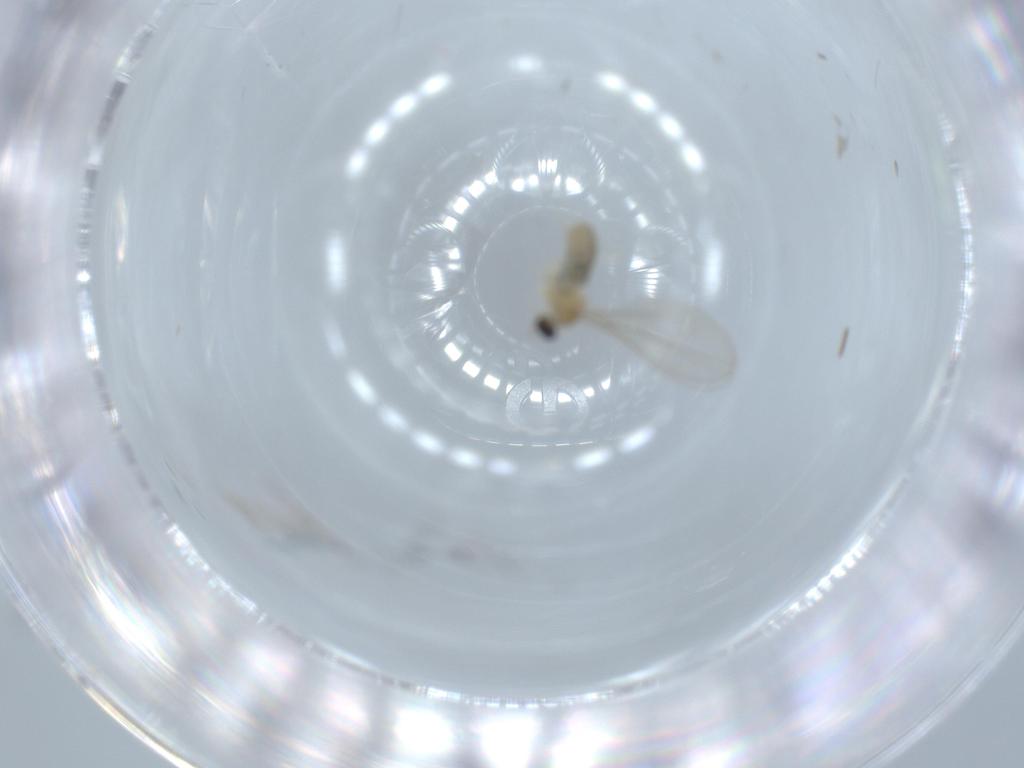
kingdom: Animalia
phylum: Arthropoda
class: Insecta
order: Diptera
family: Cecidomyiidae
